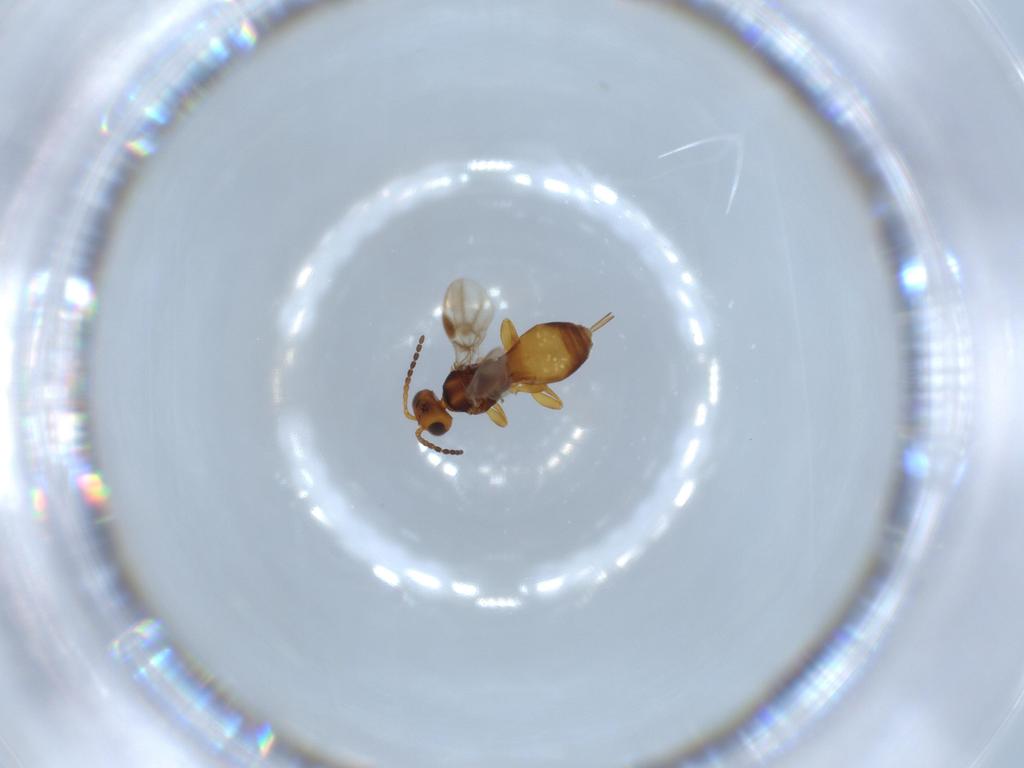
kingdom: Animalia
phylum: Arthropoda
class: Insecta
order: Hymenoptera
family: Braconidae
